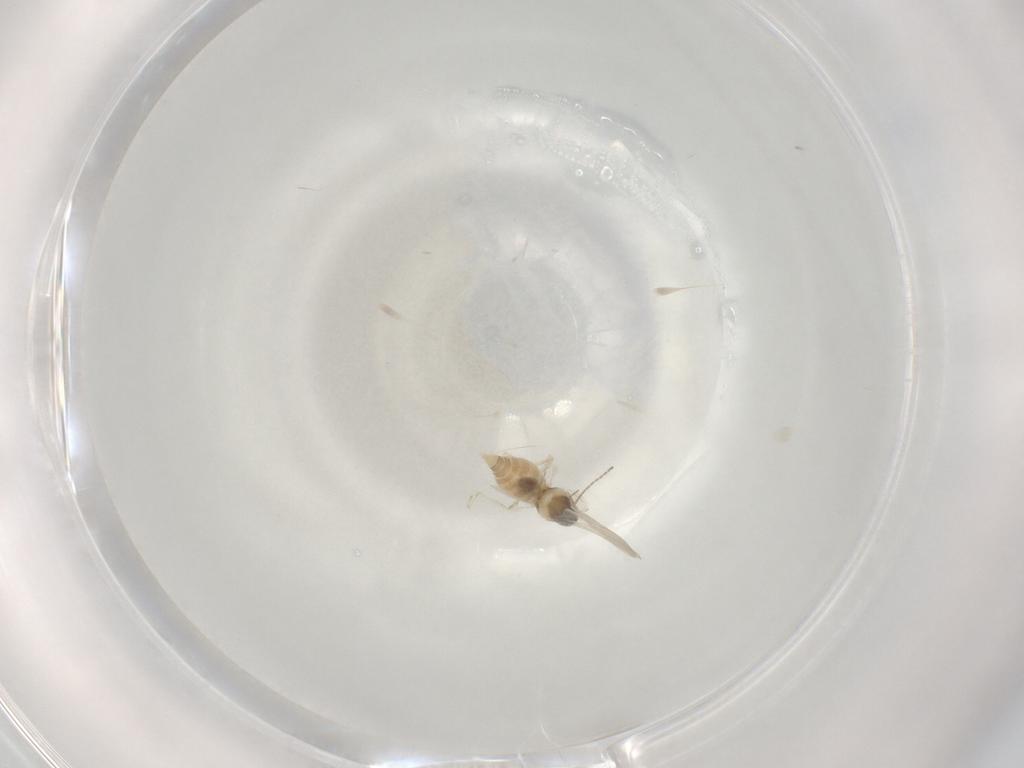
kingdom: Animalia
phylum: Arthropoda
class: Insecta
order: Diptera
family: Cecidomyiidae
